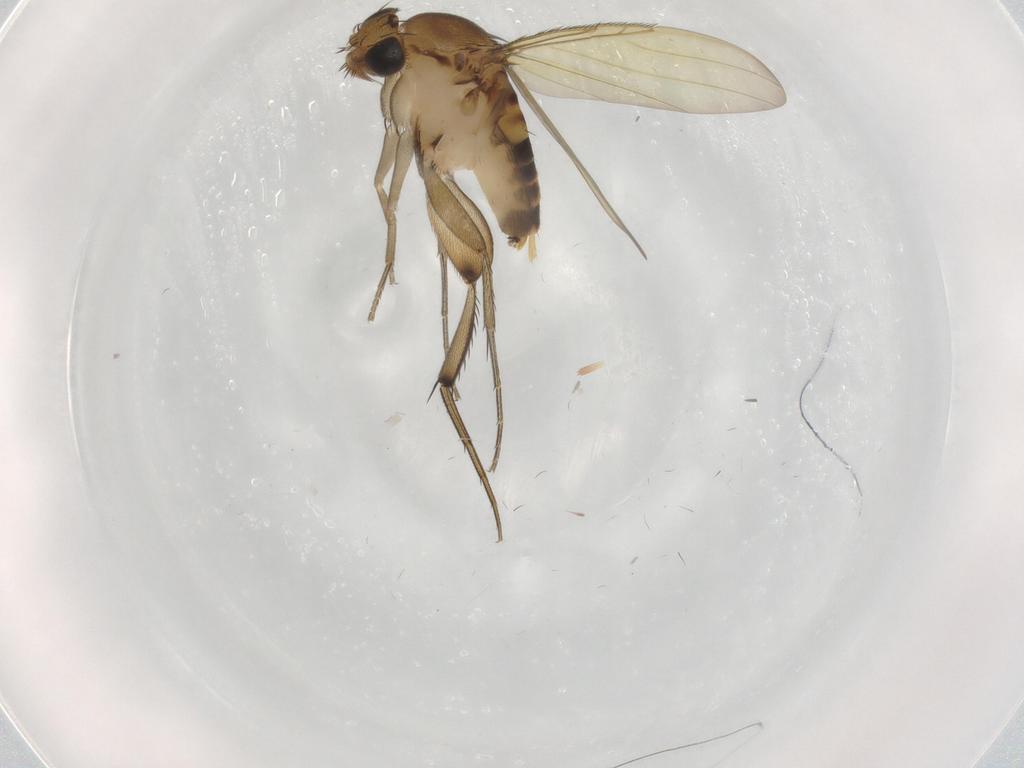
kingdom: Animalia
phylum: Arthropoda
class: Insecta
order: Diptera
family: Phoridae
